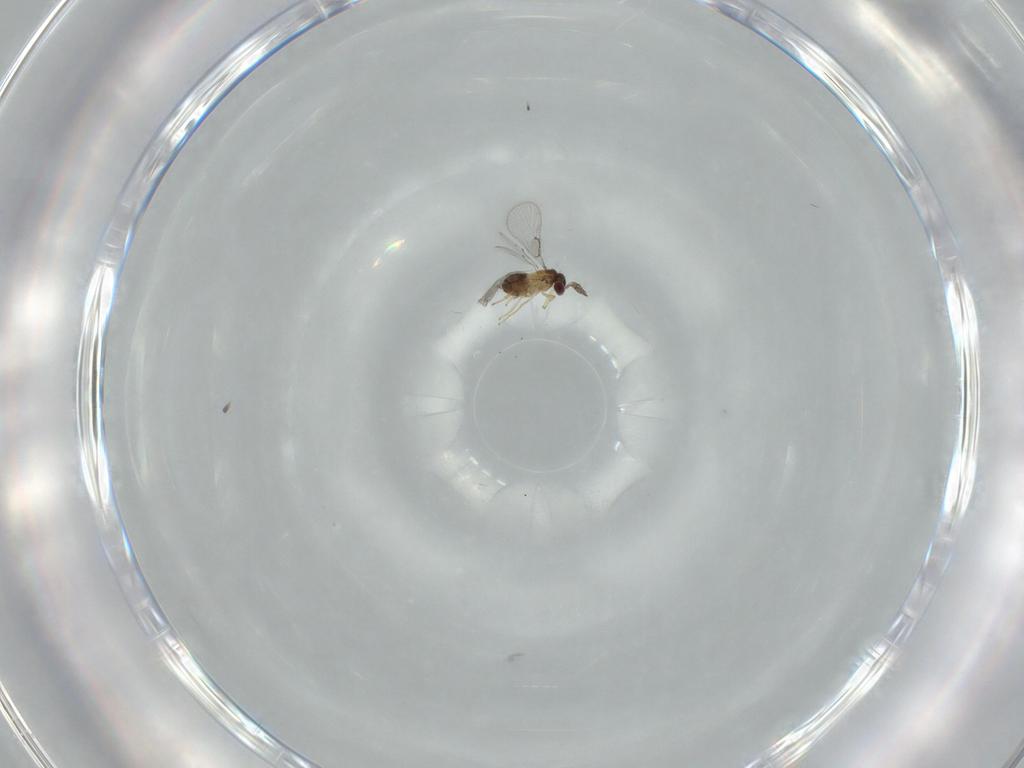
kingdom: Animalia
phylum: Arthropoda
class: Insecta
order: Hymenoptera
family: Trichogrammatidae
